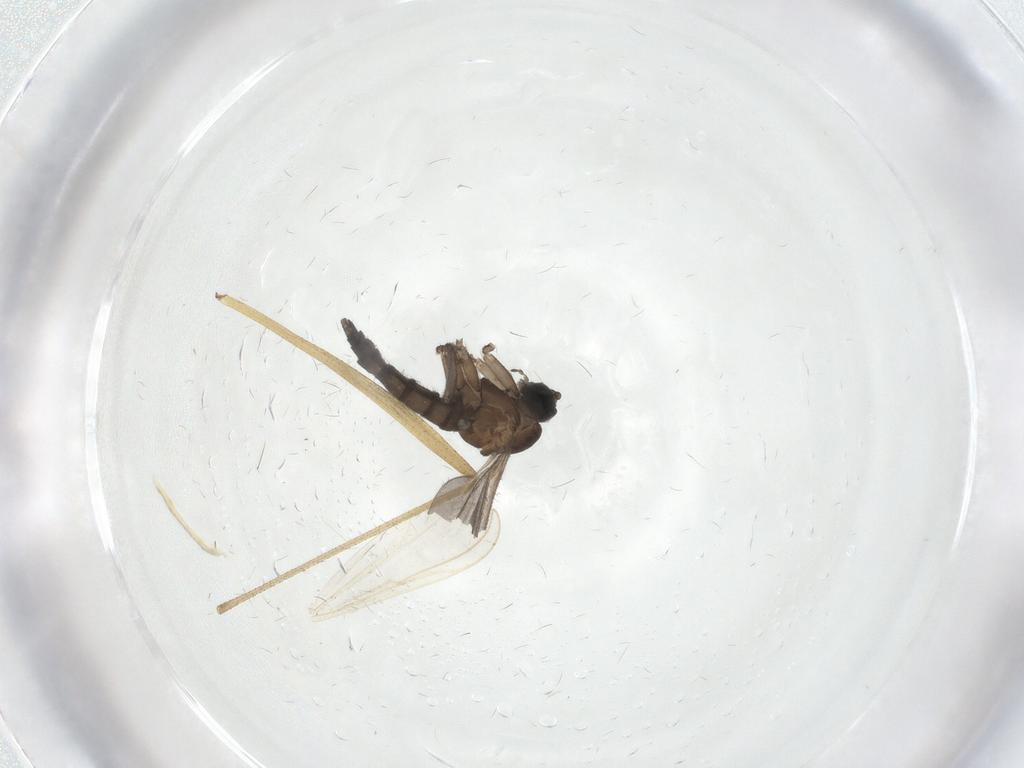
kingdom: Animalia
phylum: Arthropoda
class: Insecta
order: Diptera
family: Sciaridae
